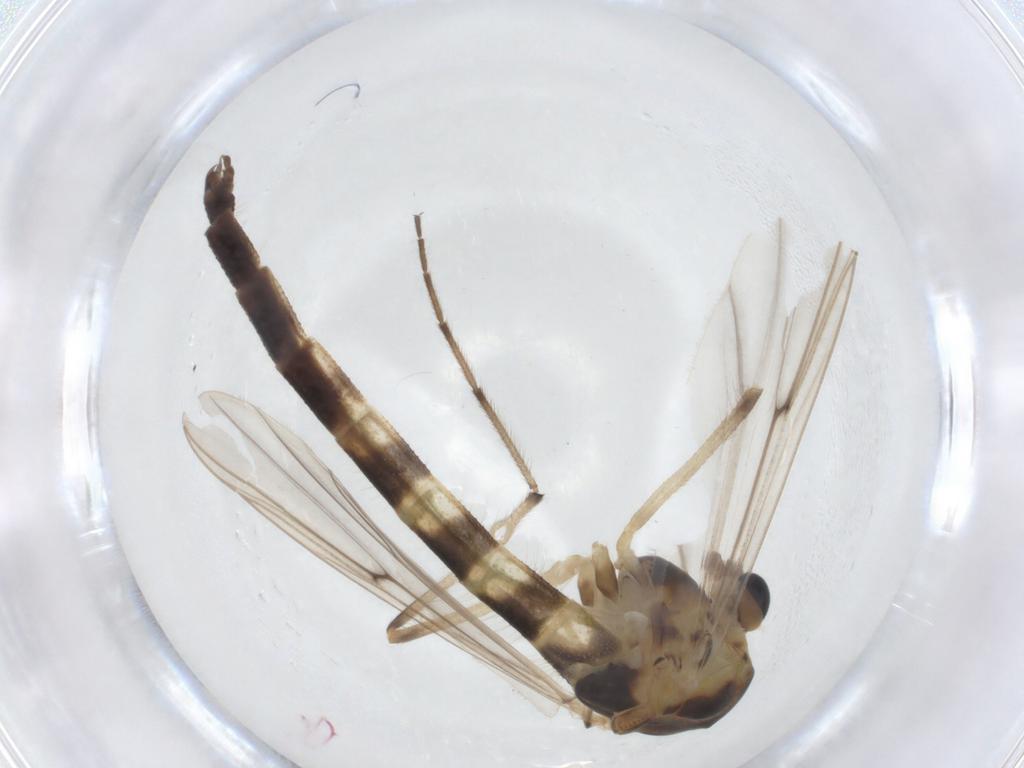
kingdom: Animalia
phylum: Arthropoda
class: Insecta
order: Diptera
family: Chironomidae
